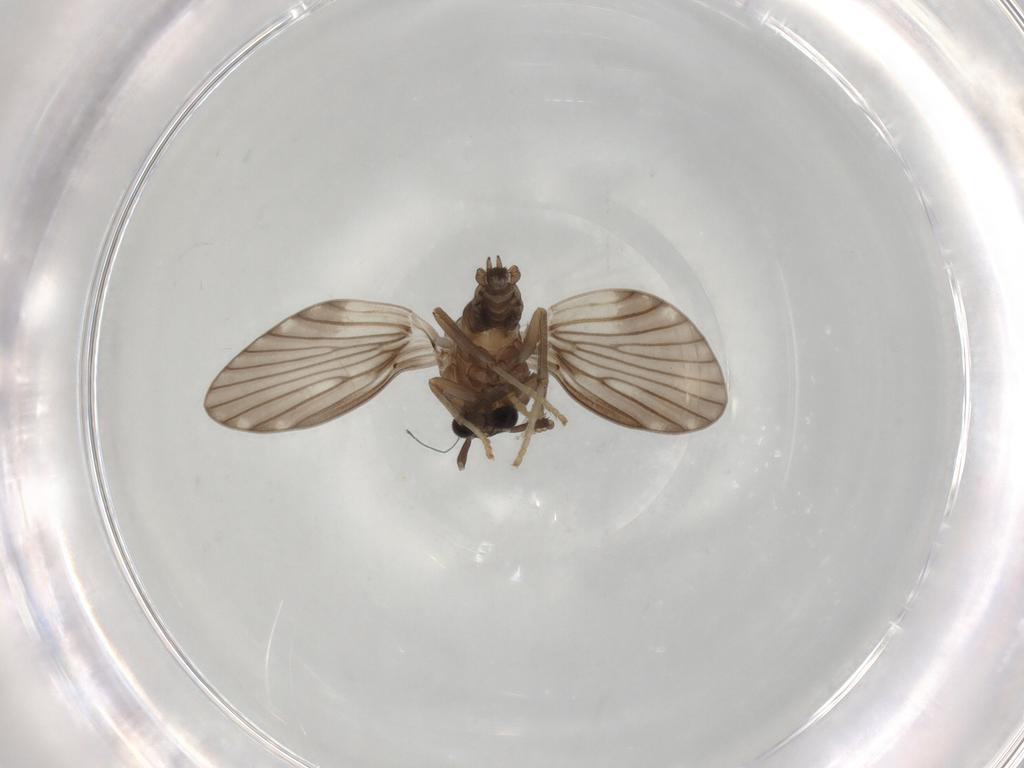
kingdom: Animalia
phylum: Arthropoda
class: Insecta
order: Diptera
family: Psychodidae
